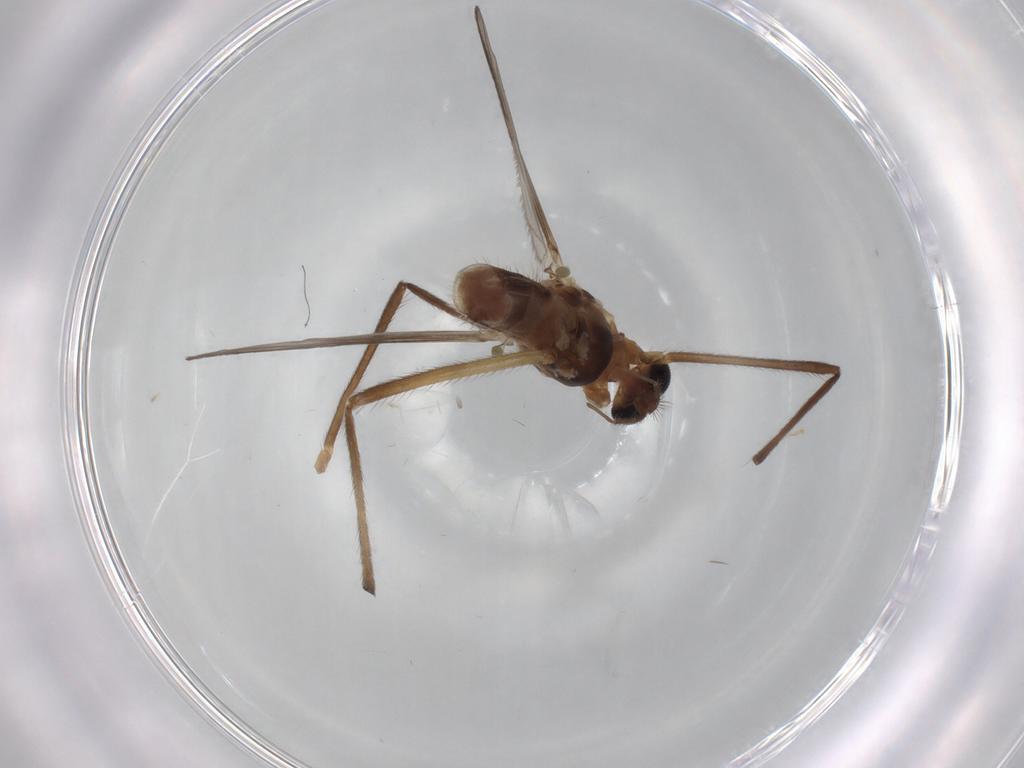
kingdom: Animalia
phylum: Arthropoda
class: Insecta
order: Diptera
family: Chironomidae
